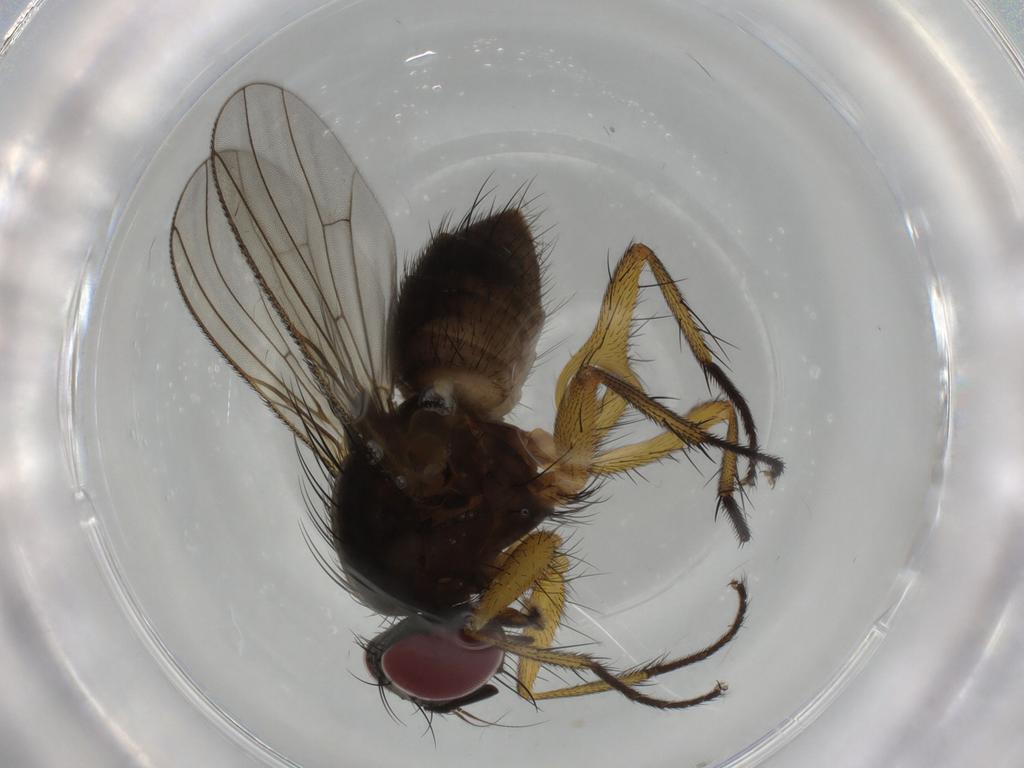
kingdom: Animalia
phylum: Arthropoda
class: Insecta
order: Diptera
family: Muscidae
